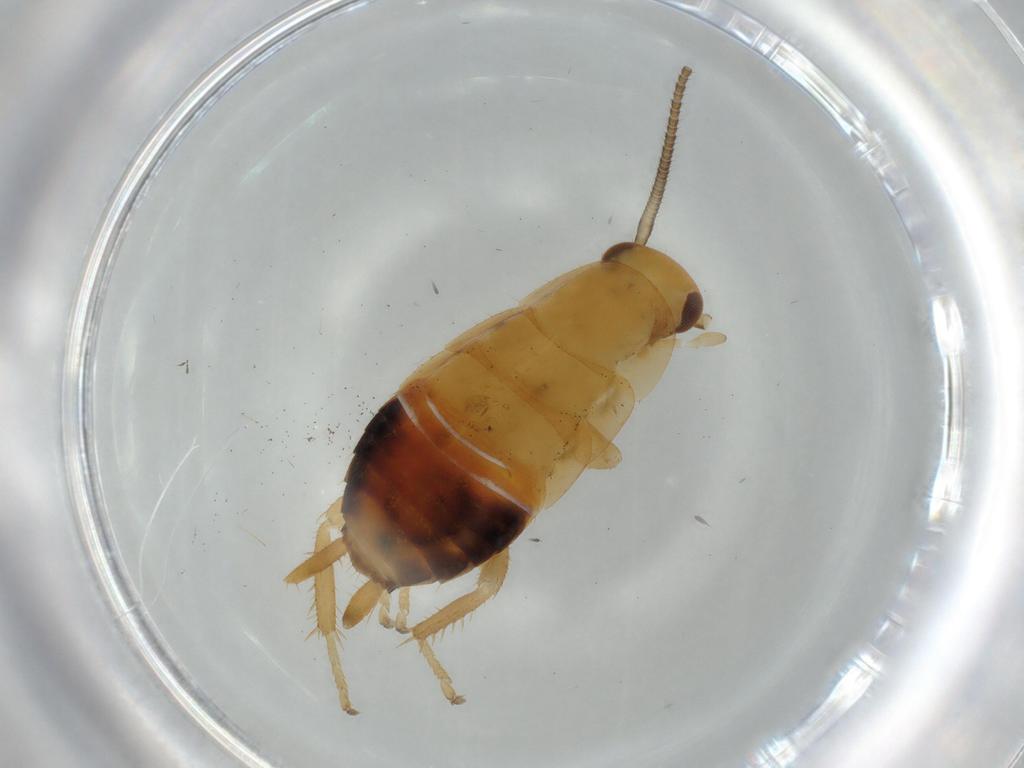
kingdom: Animalia
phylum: Arthropoda
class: Insecta
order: Blattodea
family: Ectobiidae
